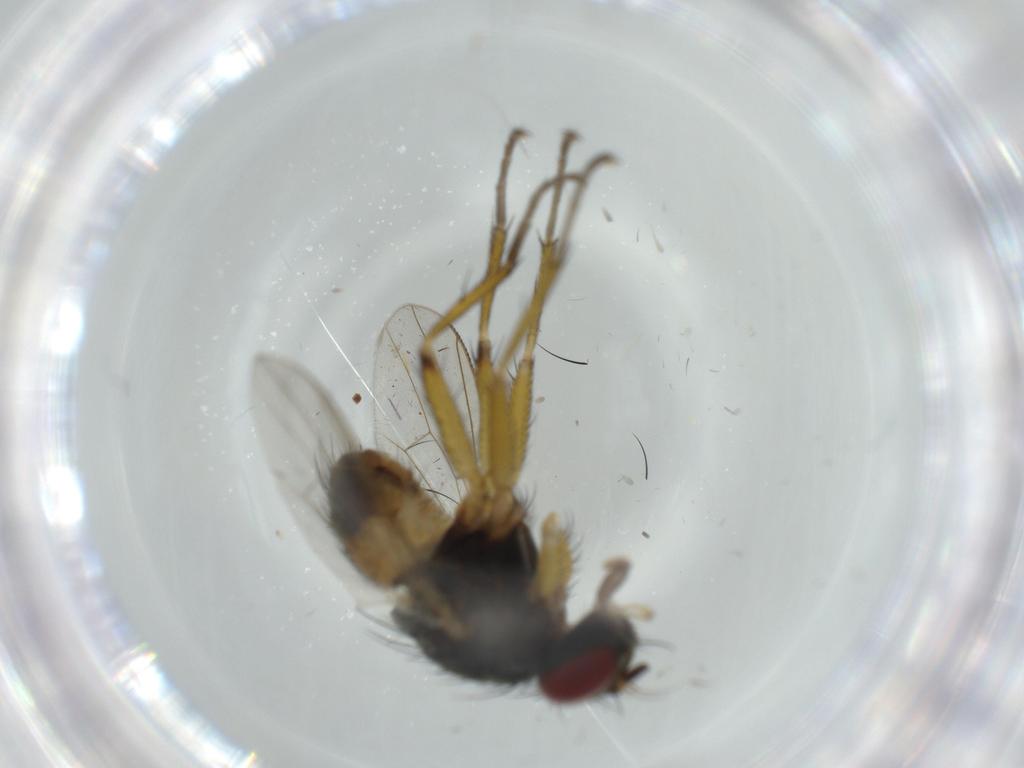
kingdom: Animalia
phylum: Arthropoda
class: Insecta
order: Diptera
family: Muscidae
